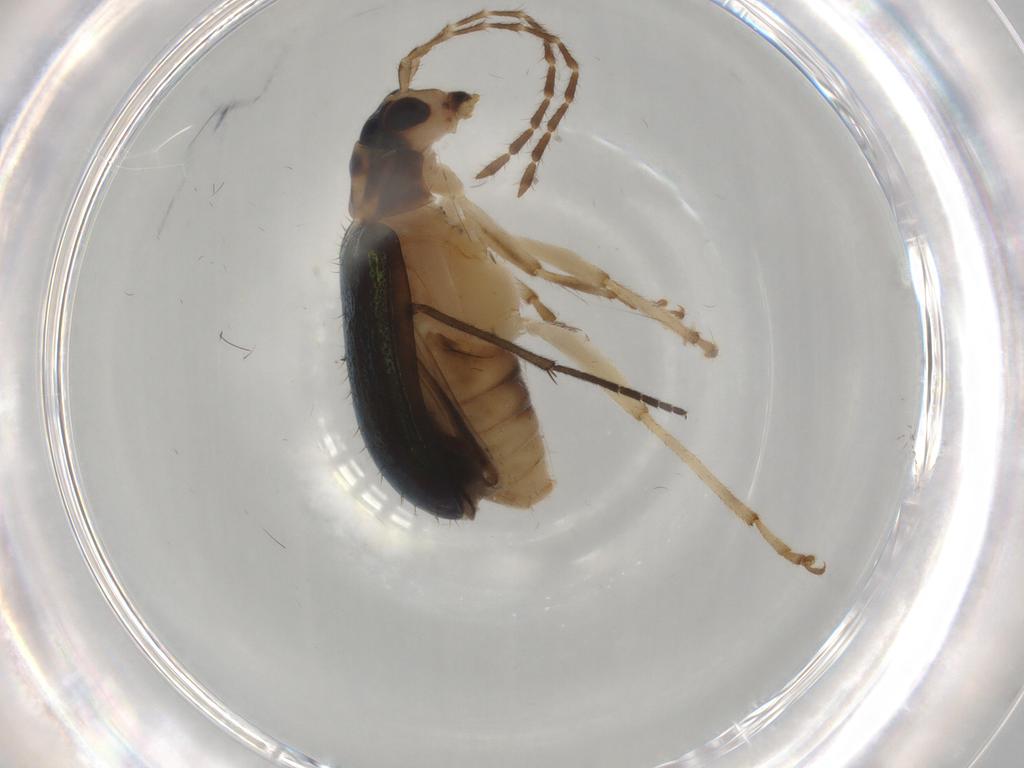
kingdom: Animalia
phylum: Arthropoda
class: Insecta
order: Coleoptera
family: Chrysomelidae
